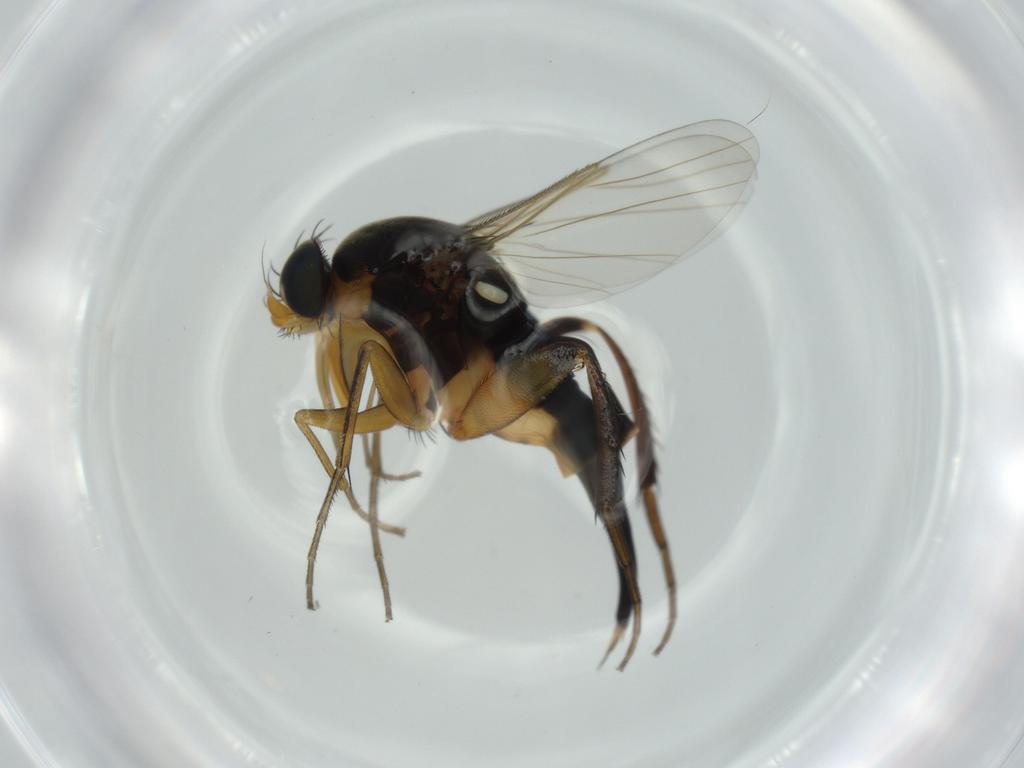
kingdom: Animalia
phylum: Arthropoda
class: Insecta
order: Diptera
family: Phoridae
